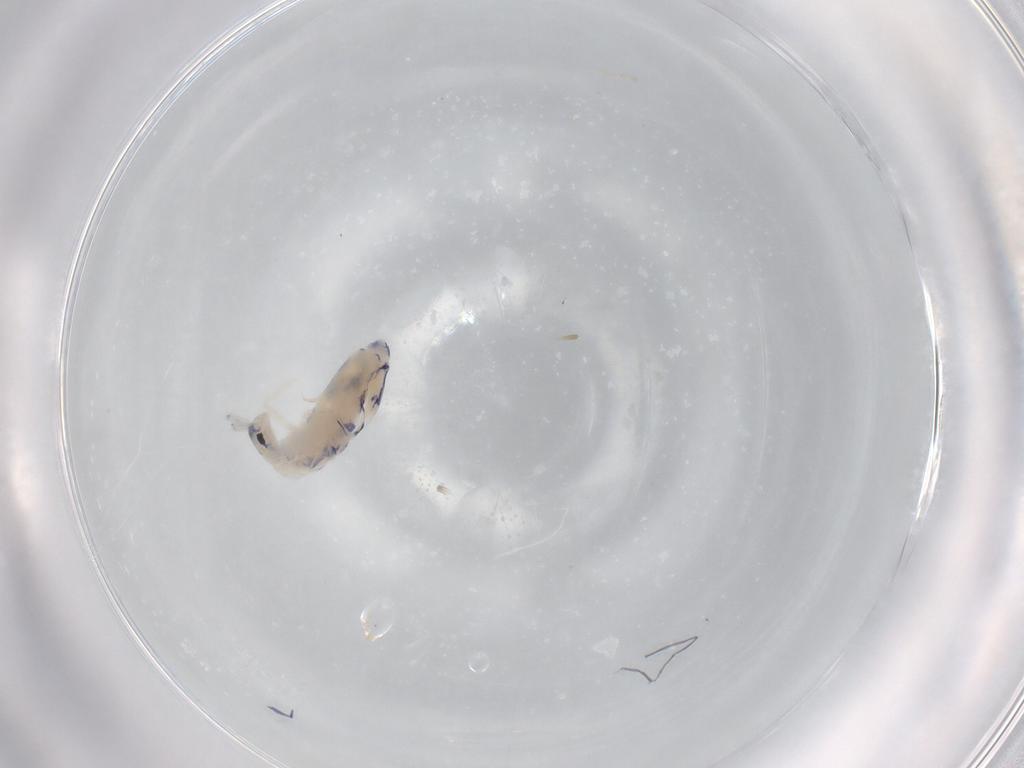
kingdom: Animalia
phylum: Arthropoda
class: Collembola
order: Entomobryomorpha
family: Entomobryidae
